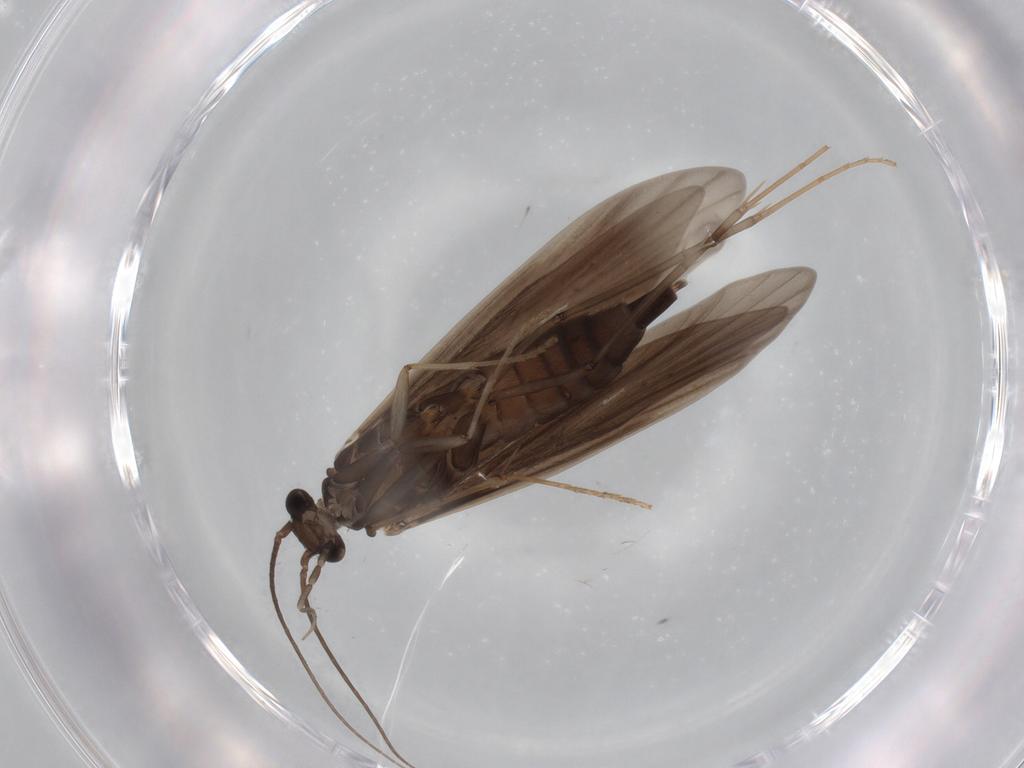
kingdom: Animalia
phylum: Arthropoda
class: Insecta
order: Trichoptera
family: Xiphocentronidae
